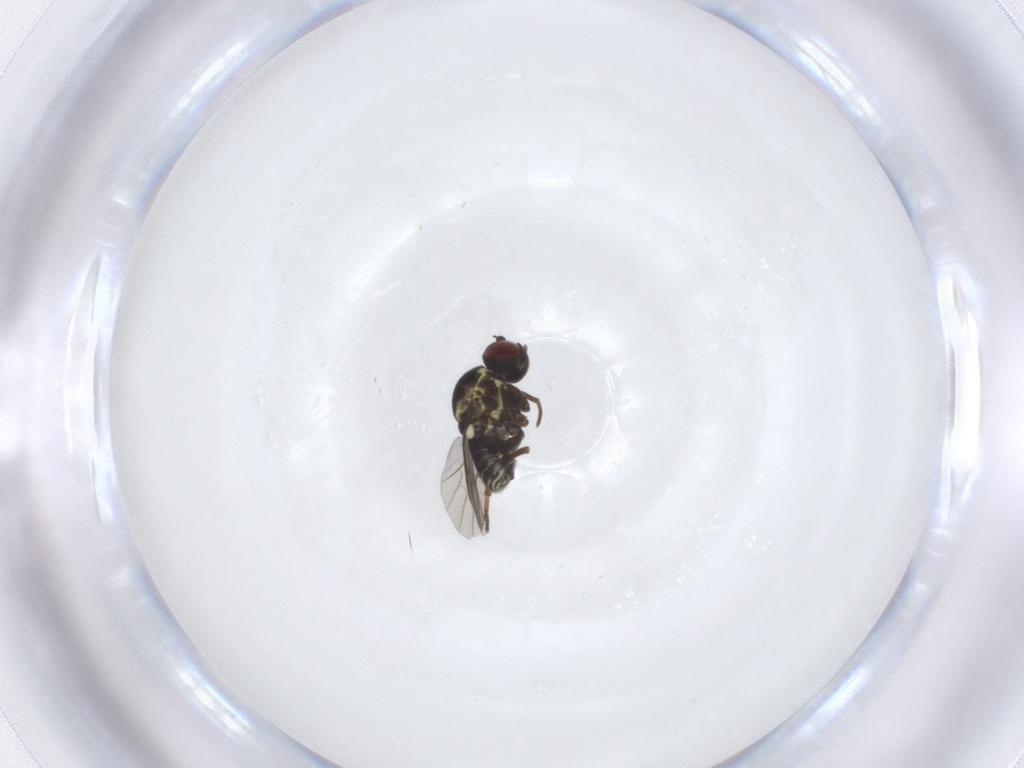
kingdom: Animalia
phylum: Arthropoda
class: Insecta
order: Diptera
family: Bombyliidae
